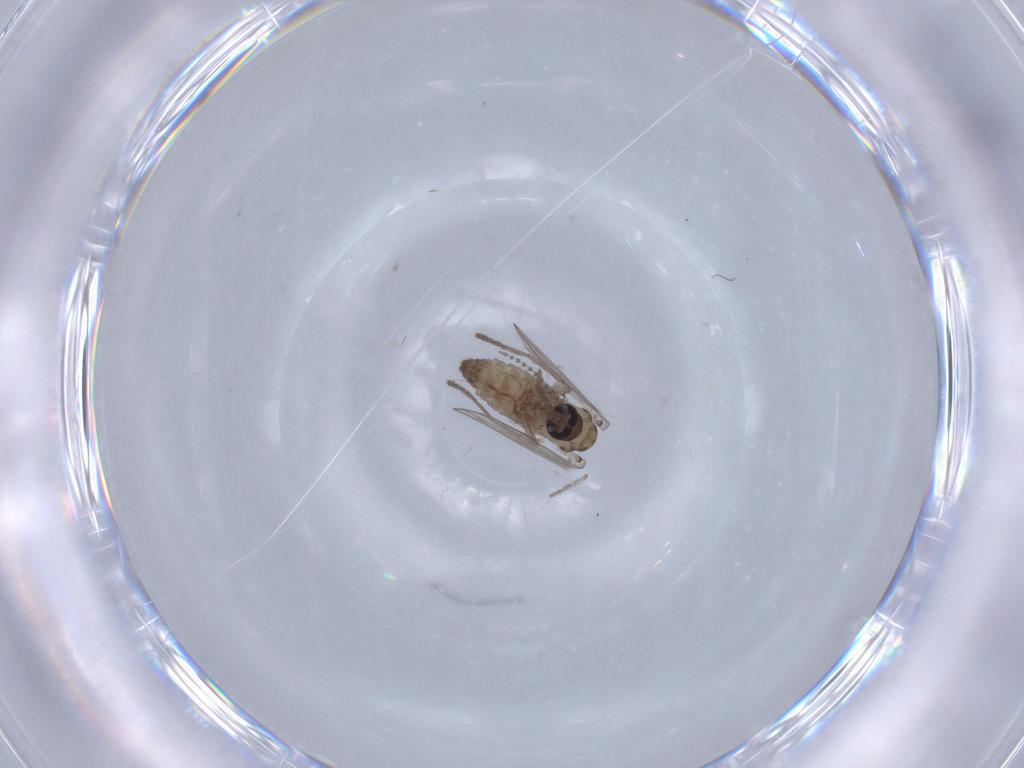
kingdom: Animalia
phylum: Arthropoda
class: Insecta
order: Diptera
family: Psychodidae
